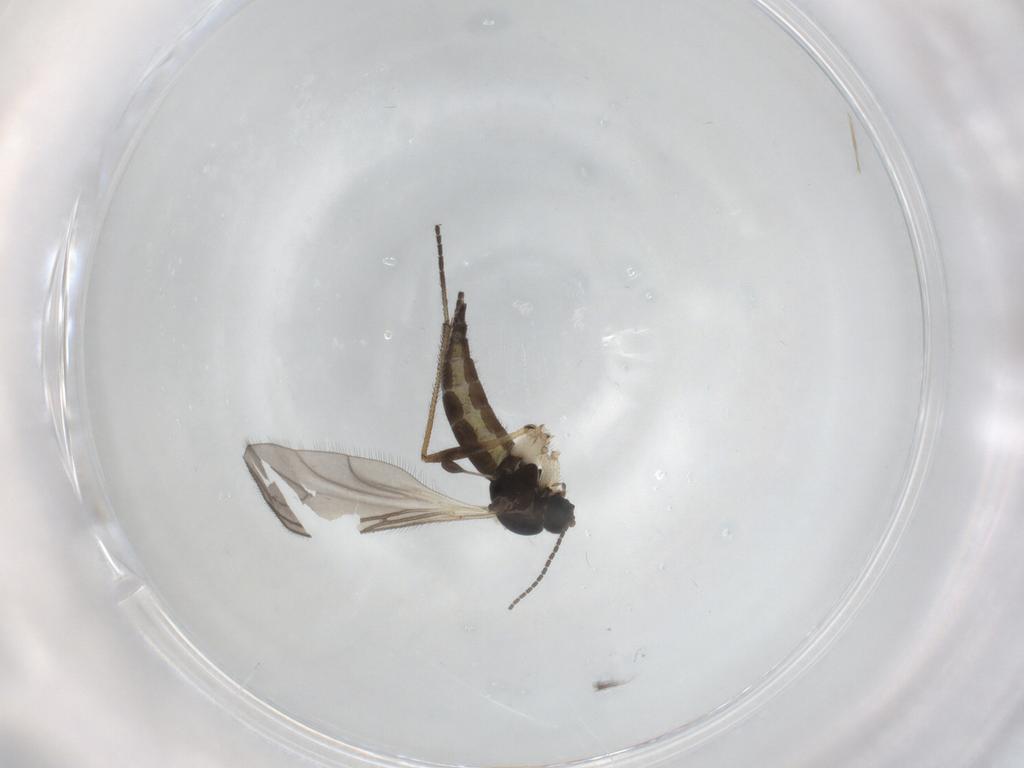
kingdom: Animalia
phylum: Arthropoda
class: Insecta
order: Diptera
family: Sciaridae
